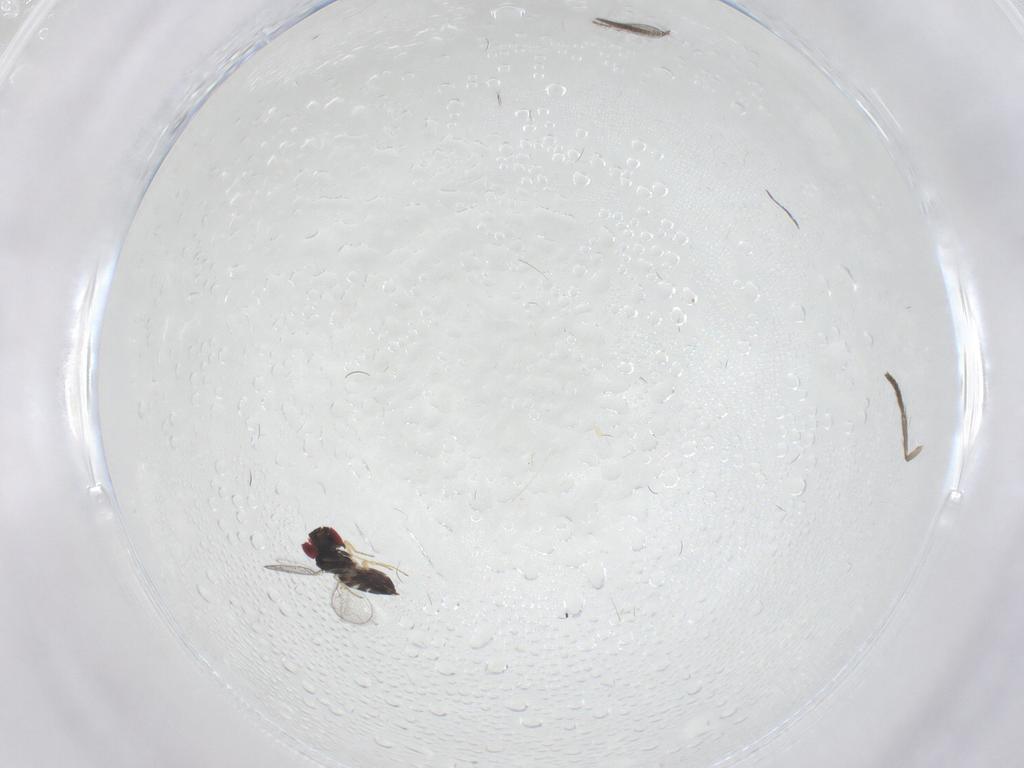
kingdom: Animalia
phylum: Arthropoda
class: Insecta
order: Hymenoptera
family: Eulophidae
